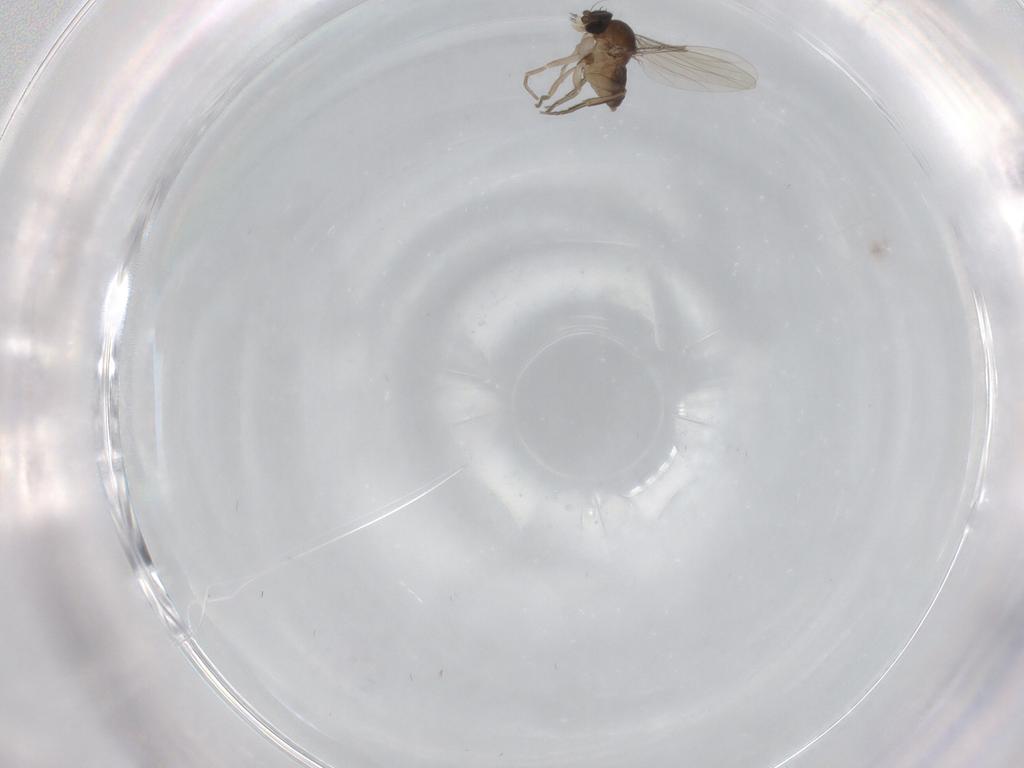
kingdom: Animalia
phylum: Arthropoda
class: Insecta
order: Diptera
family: Phoridae
